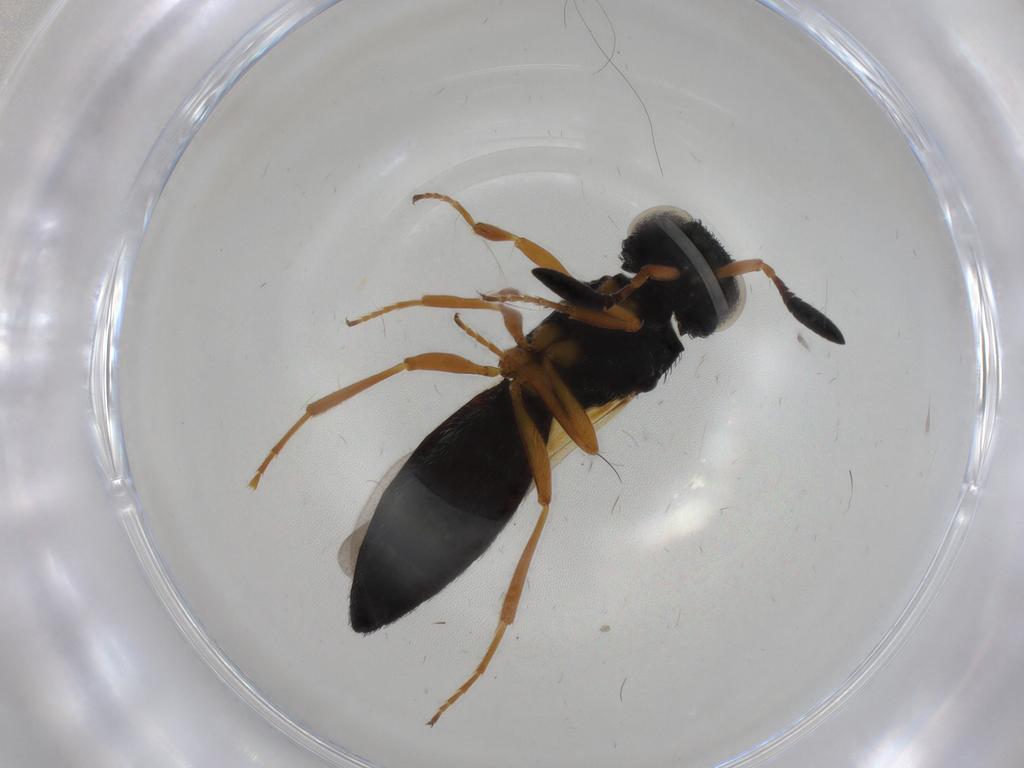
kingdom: Animalia
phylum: Arthropoda
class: Insecta
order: Hymenoptera
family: Scelionidae
